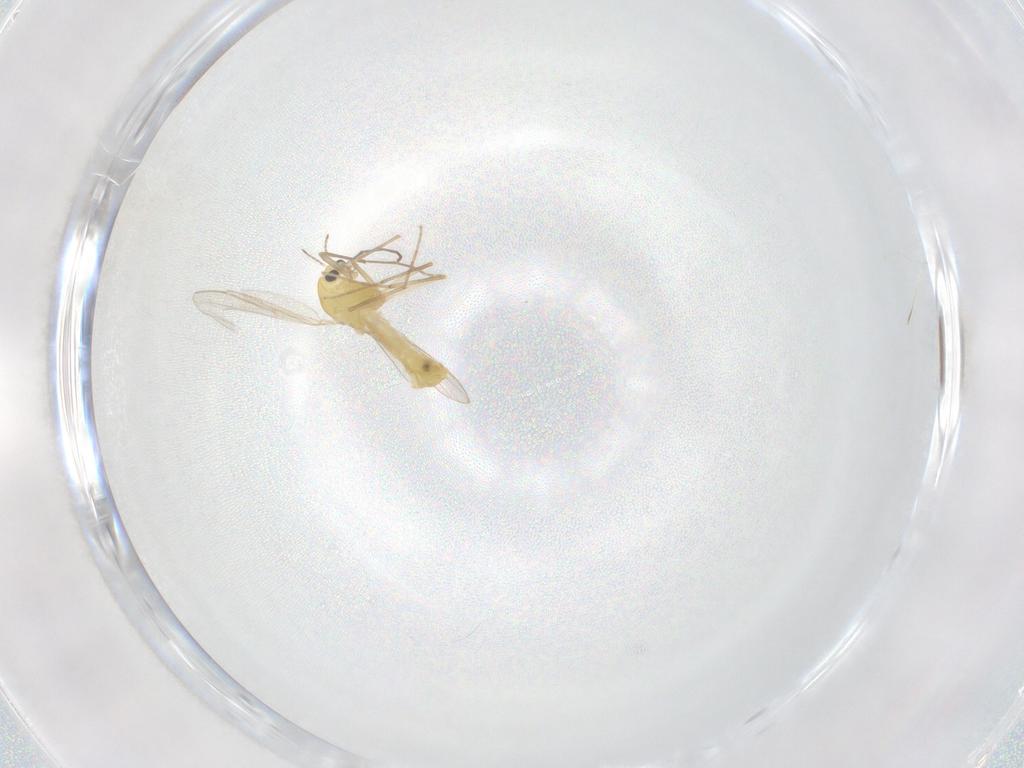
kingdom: Animalia
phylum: Arthropoda
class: Insecta
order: Diptera
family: Chironomidae
